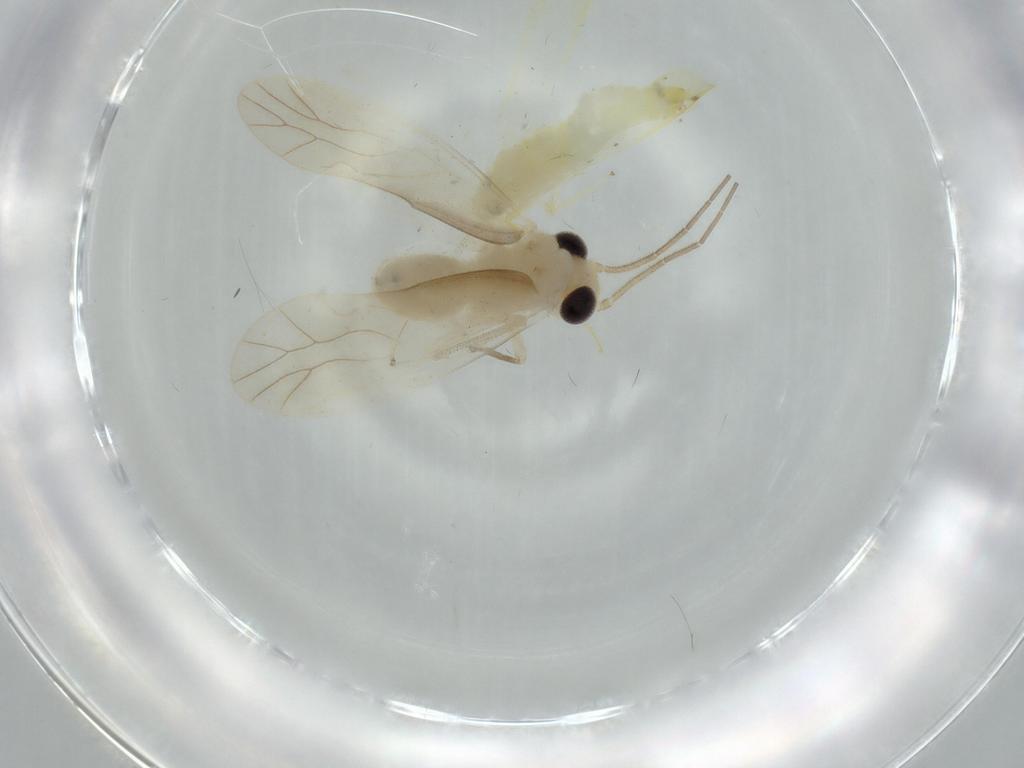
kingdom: Animalia
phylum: Arthropoda
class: Insecta
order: Psocodea
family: Caeciliusidae
